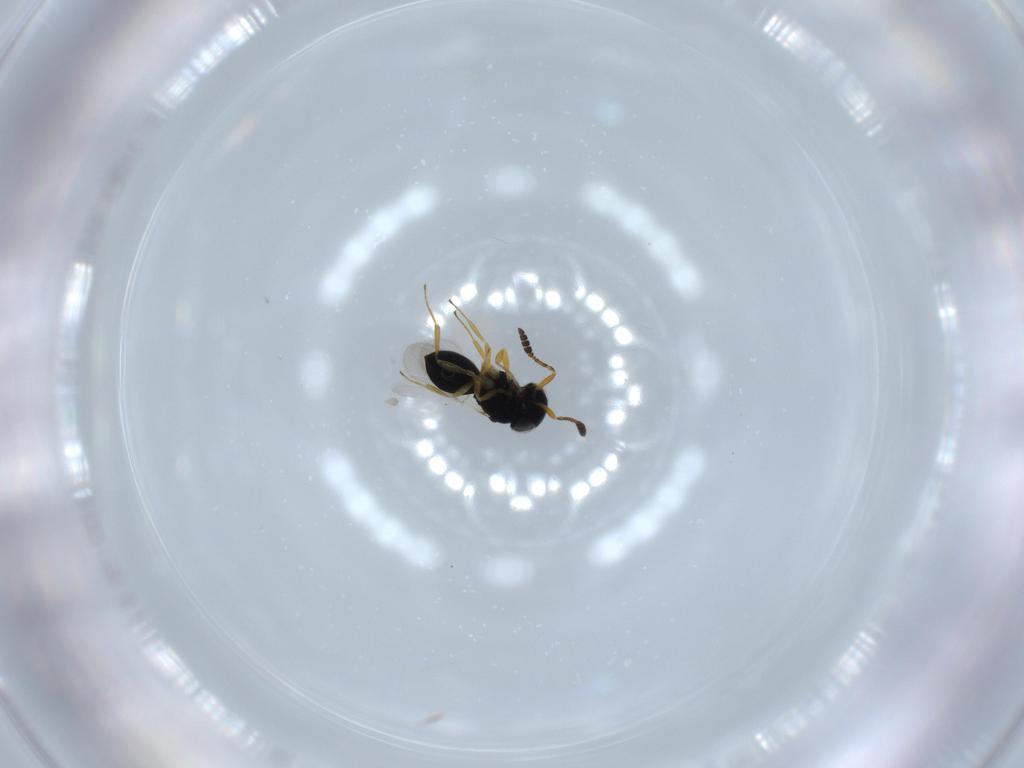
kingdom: Animalia
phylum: Arthropoda
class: Insecta
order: Hymenoptera
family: Scelionidae
